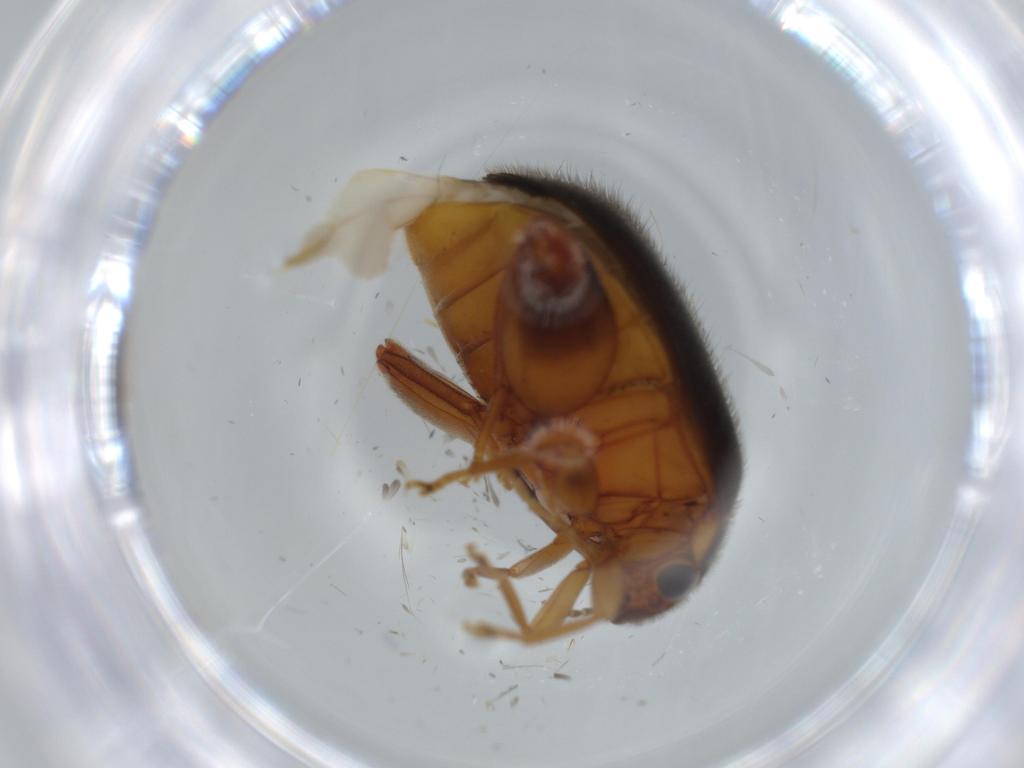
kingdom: Animalia
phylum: Arthropoda
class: Insecta
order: Coleoptera
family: Scirtidae
